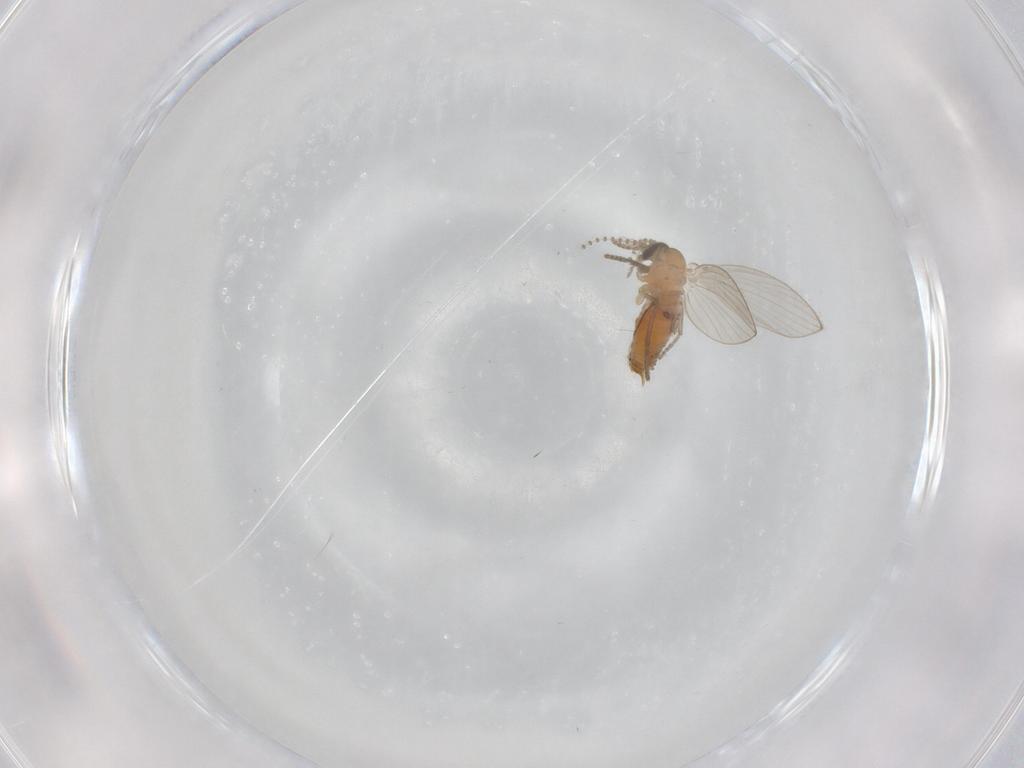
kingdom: Animalia
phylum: Arthropoda
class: Insecta
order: Diptera
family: Psychodidae
